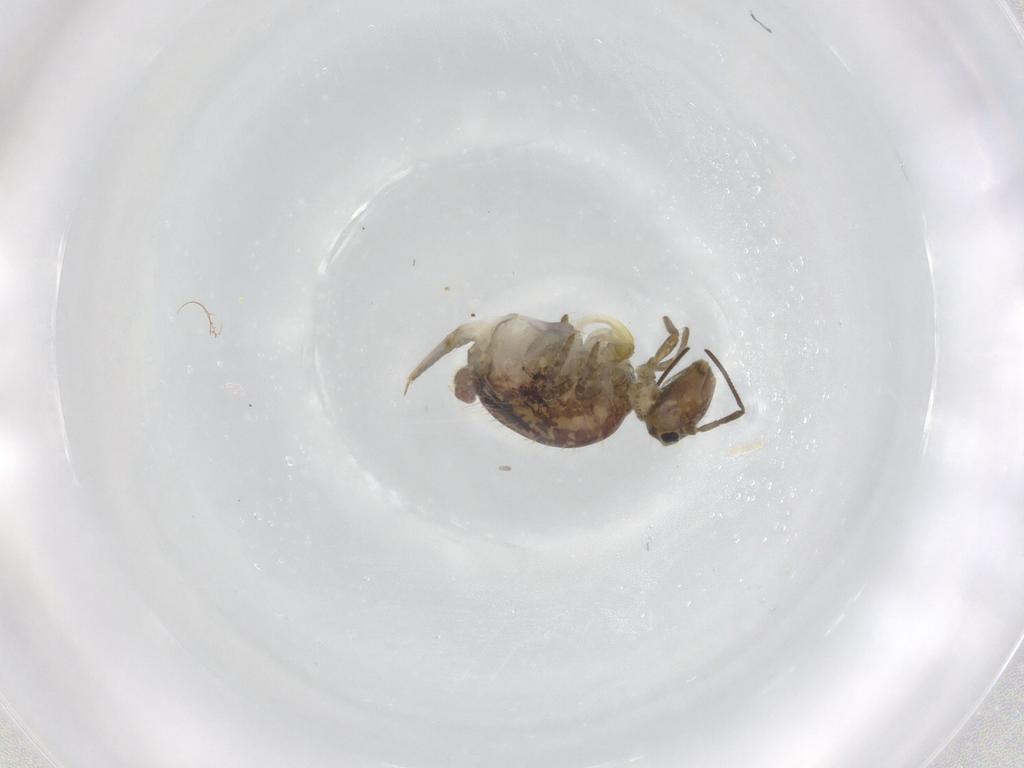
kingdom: Animalia
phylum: Arthropoda
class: Collembola
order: Symphypleona
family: Sminthuridae
